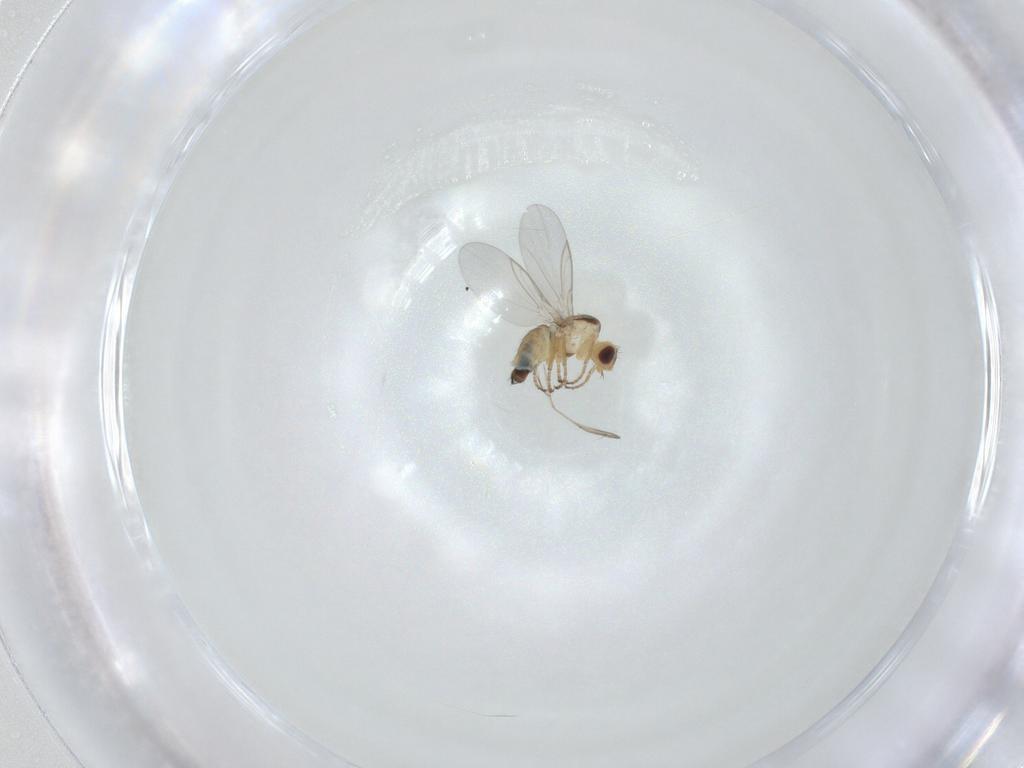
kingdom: Animalia
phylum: Arthropoda
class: Insecta
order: Diptera
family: Agromyzidae
